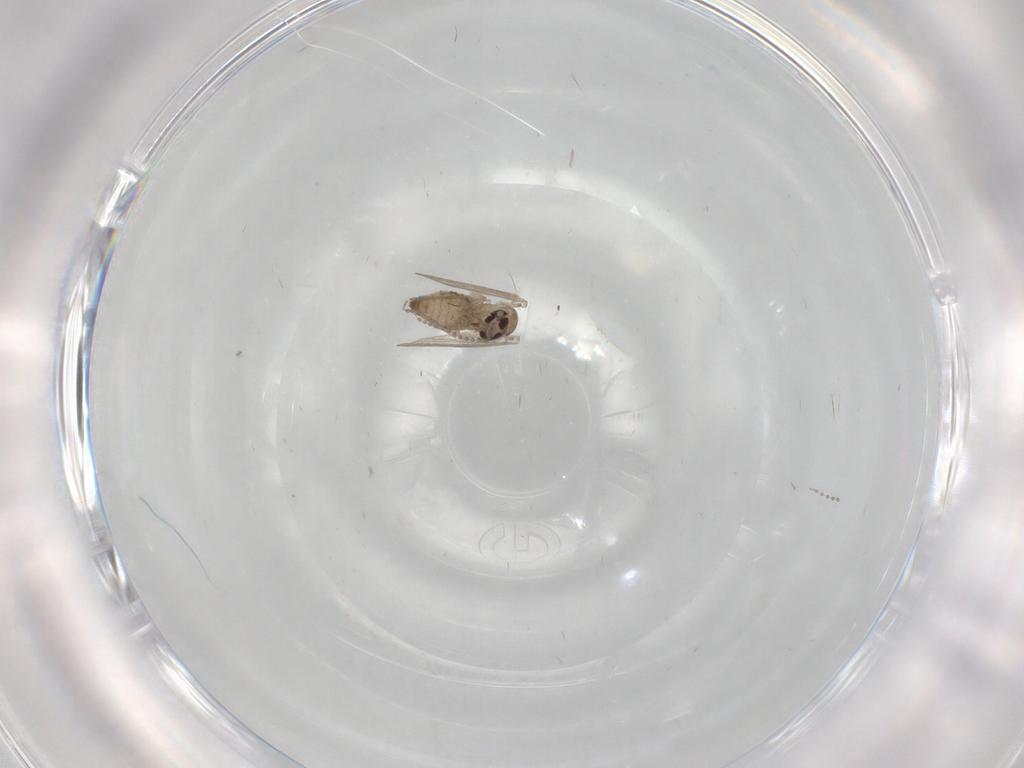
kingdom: Animalia
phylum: Arthropoda
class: Insecta
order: Diptera
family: Psychodidae
